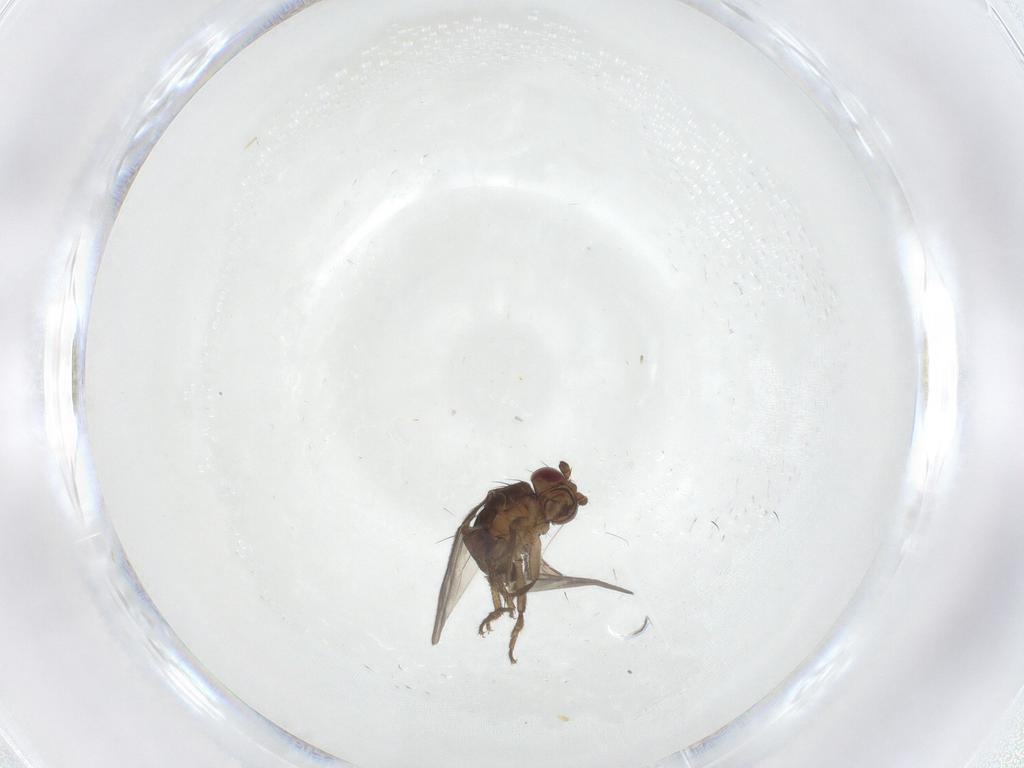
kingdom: Animalia
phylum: Arthropoda
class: Insecta
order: Diptera
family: Sphaeroceridae
